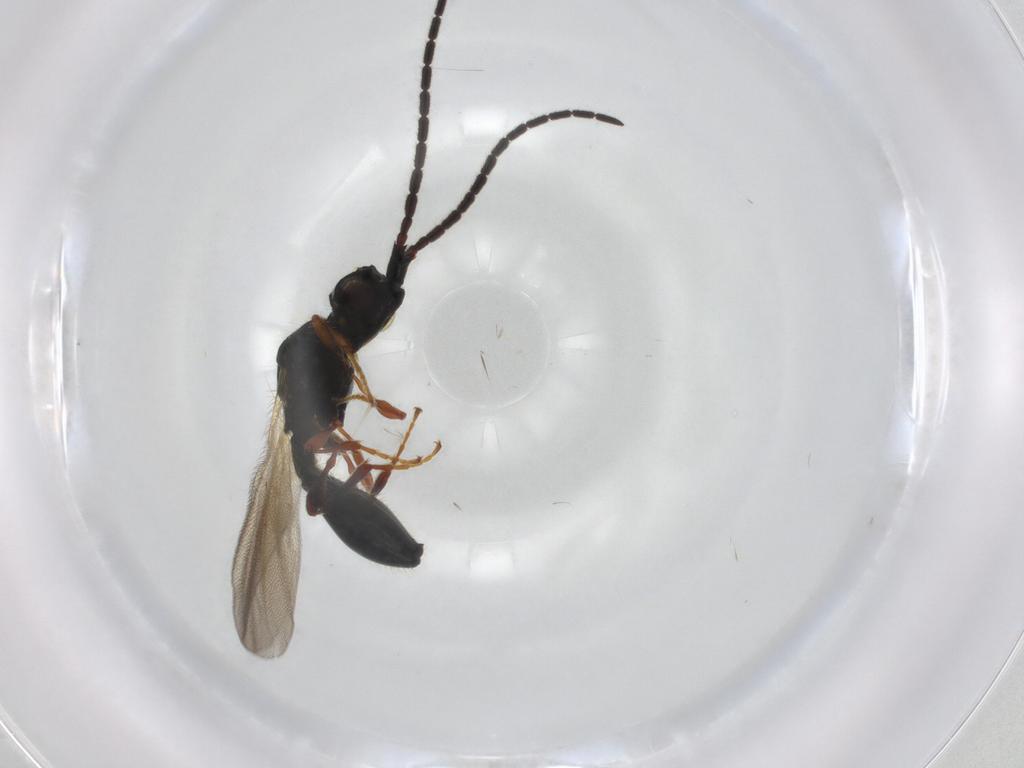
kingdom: Animalia
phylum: Arthropoda
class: Insecta
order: Hymenoptera
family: Diapriidae
